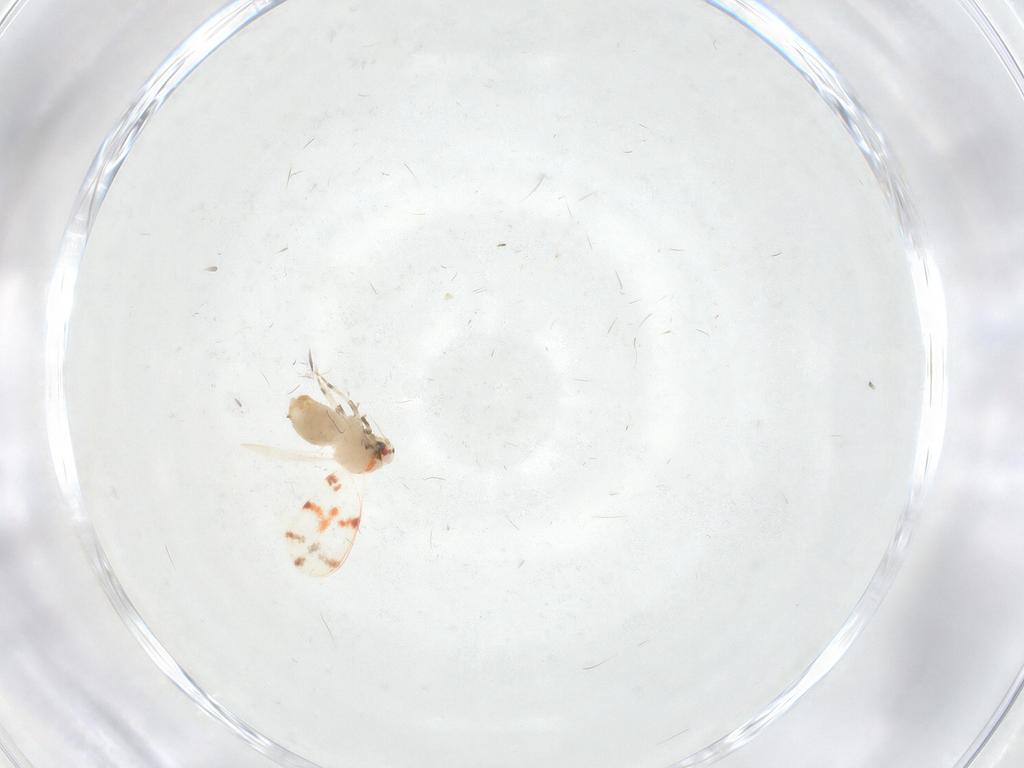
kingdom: Animalia
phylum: Arthropoda
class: Insecta
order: Hemiptera
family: Aleyrodidae
